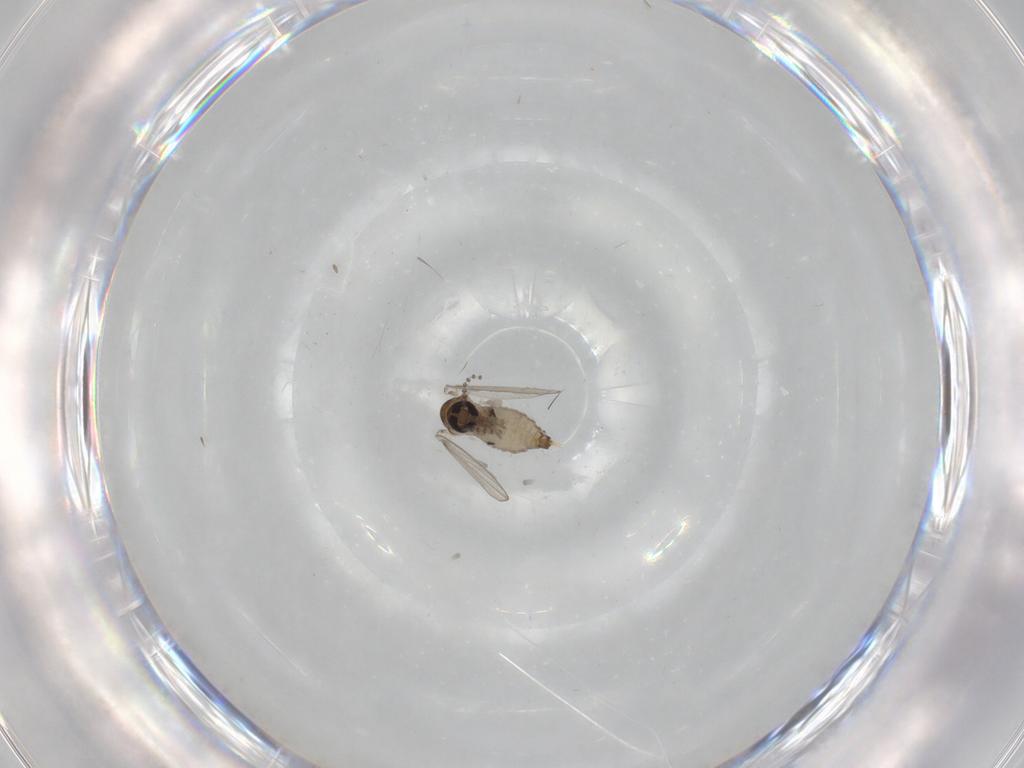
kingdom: Animalia
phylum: Arthropoda
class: Insecta
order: Diptera
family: Psychodidae
